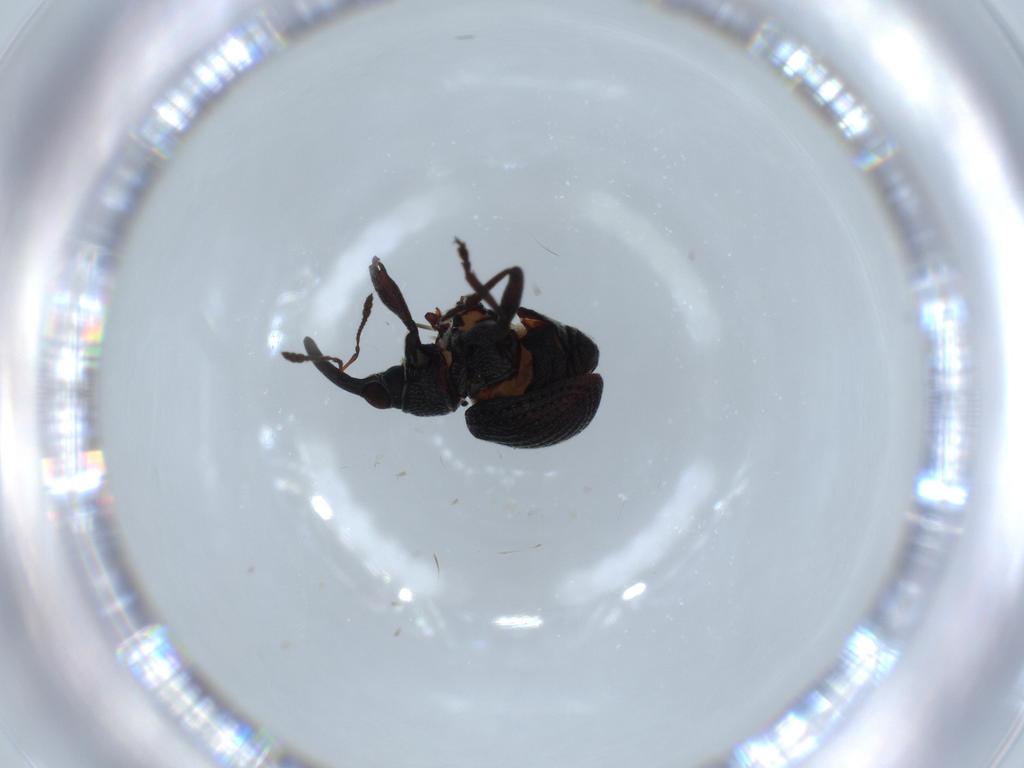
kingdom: Animalia
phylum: Arthropoda
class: Insecta
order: Coleoptera
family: Brentidae
